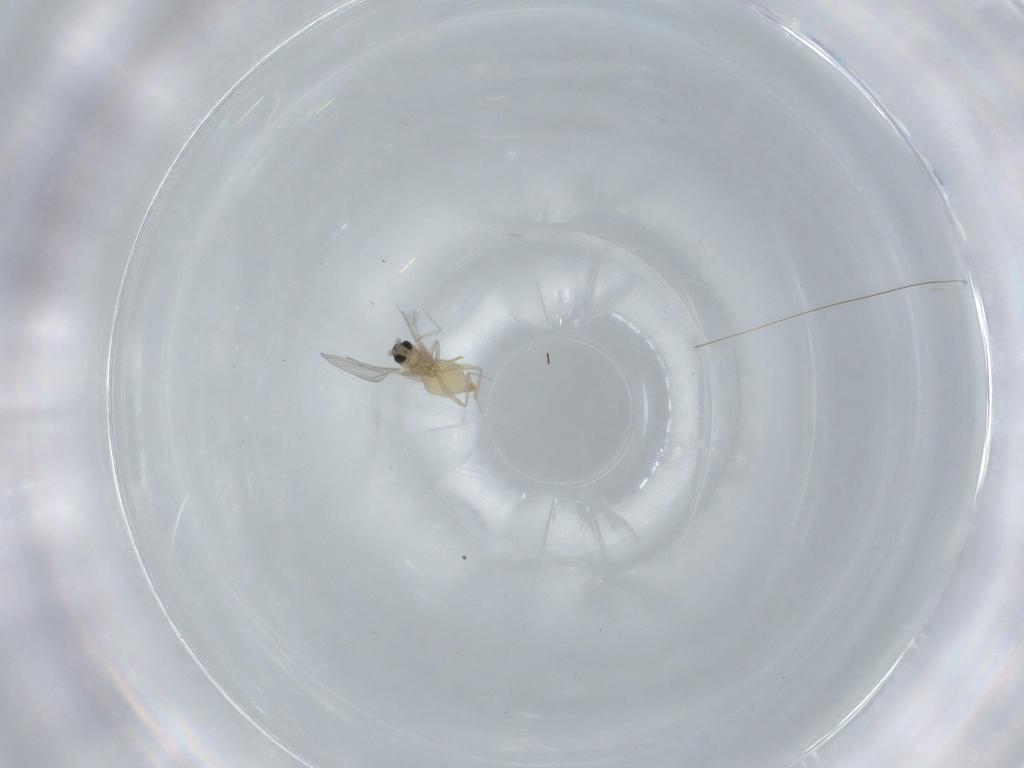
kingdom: Animalia
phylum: Arthropoda
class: Insecta
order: Diptera
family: Cecidomyiidae
